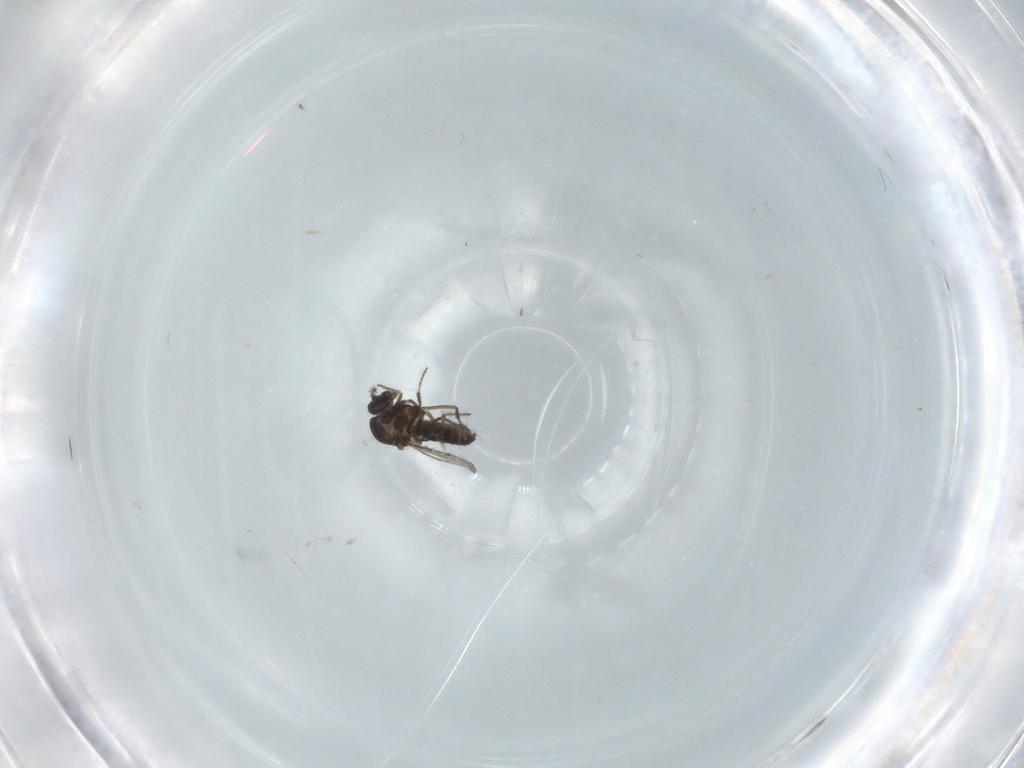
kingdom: Animalia
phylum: Arthropoda
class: Insecta
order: Diptera
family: Ceratopogonidae
